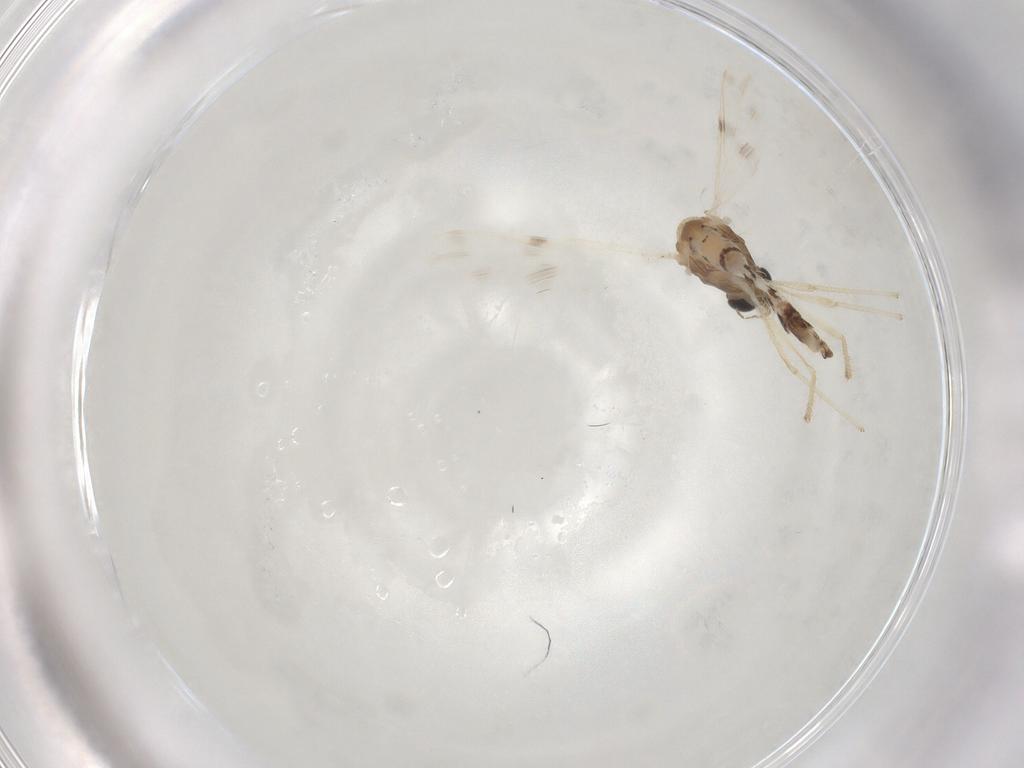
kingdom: Animalia
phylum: Arthropoda
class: Insecta
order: Diptera
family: Chironomidae
